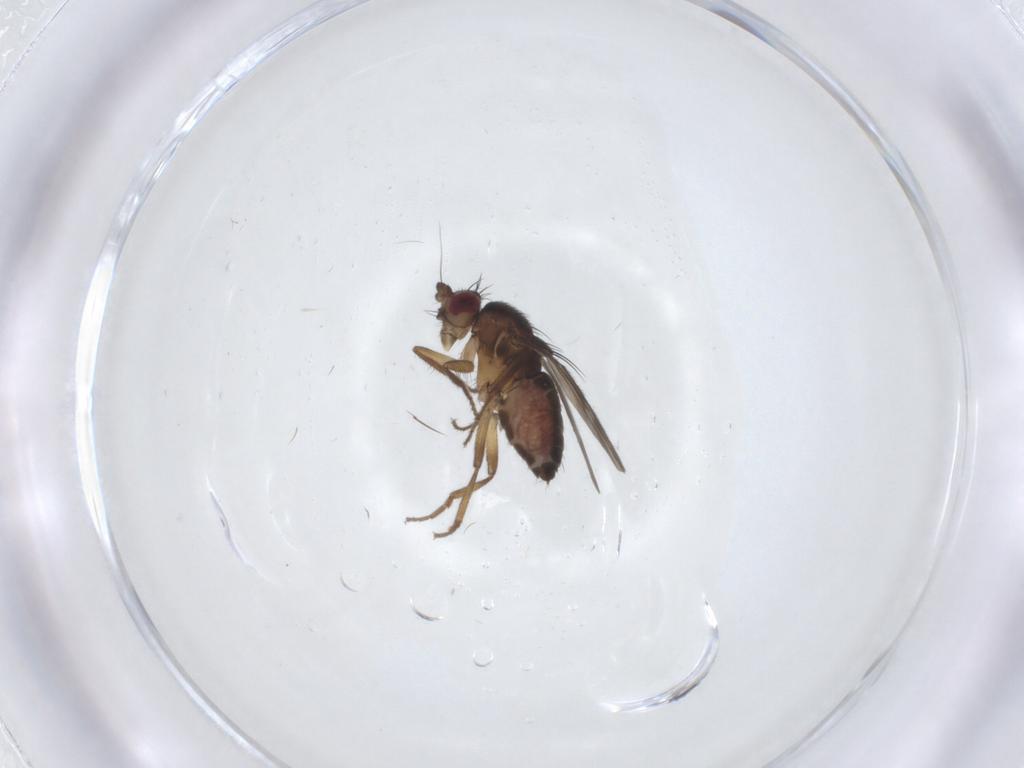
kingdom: Animalia
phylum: Arthropoda
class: Insecta
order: Diptera
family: Sphaeroceridae
